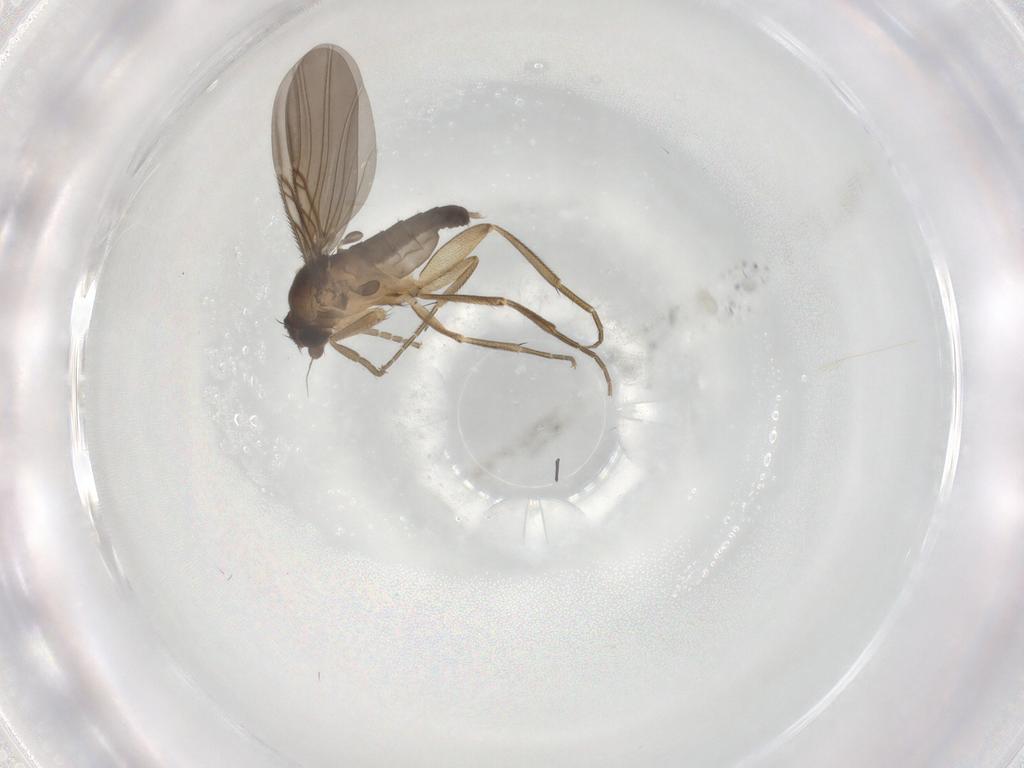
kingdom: Animalia
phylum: Arthropoda
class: Insecta
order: Diptera
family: Phoridae
